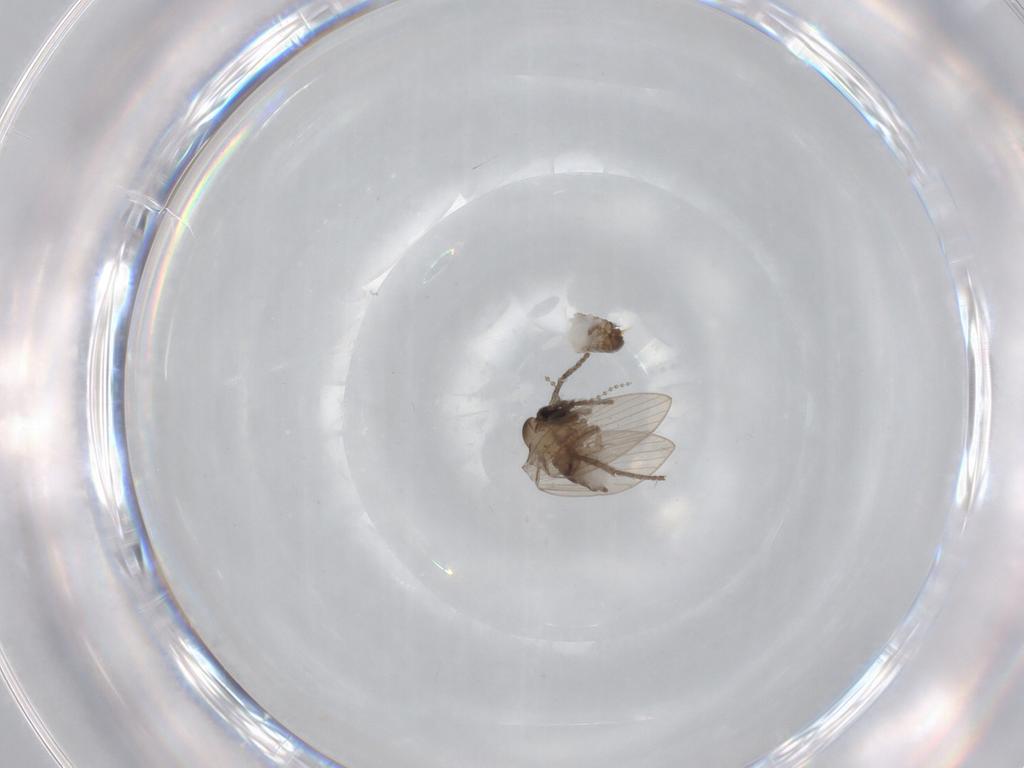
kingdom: Animalia
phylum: Arthropoda
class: Insecta
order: Diptera
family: Psychodidae
